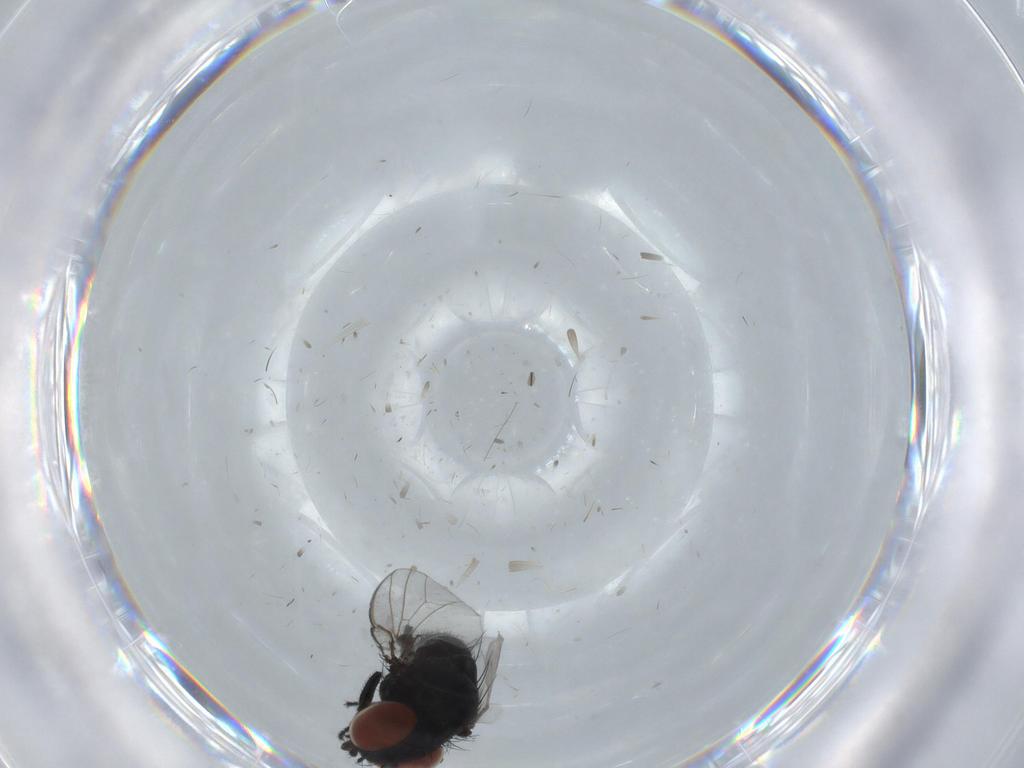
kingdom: Animalia
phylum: Arthropoda
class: Insecta
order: Diptera
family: Milichiidae
